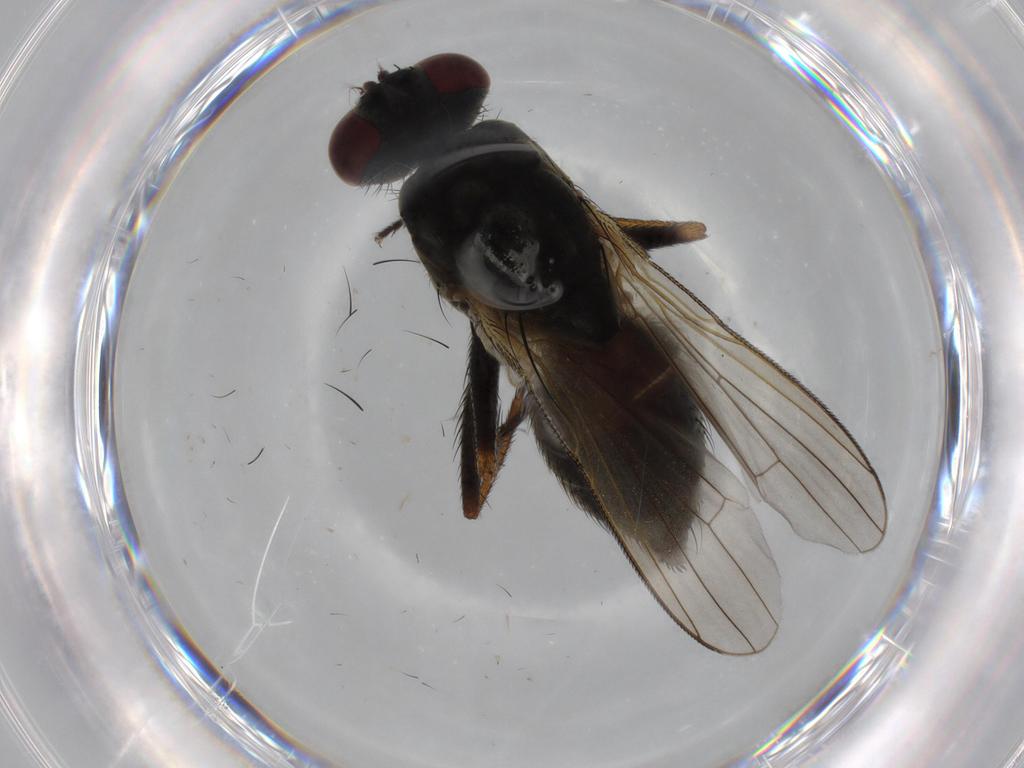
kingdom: Animalia
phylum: Arthropoda
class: Insecta
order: Diptera
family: Muscidae
